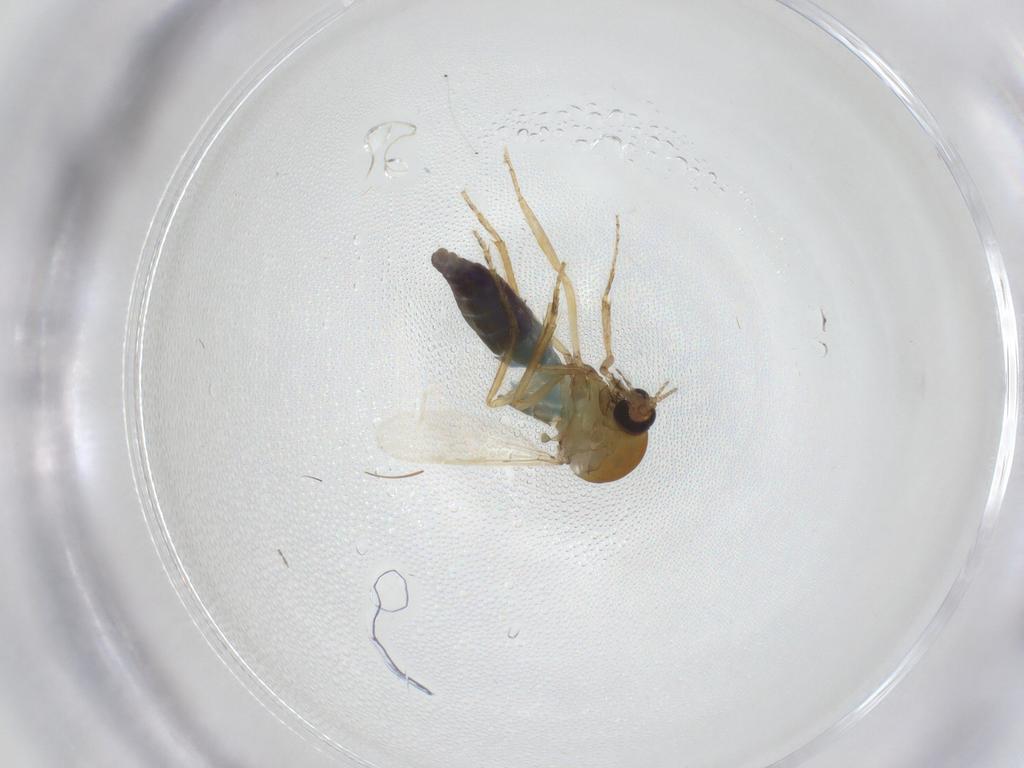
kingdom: Animalia
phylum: Arthropoda
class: Insecta
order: Diptera
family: Ceratopogonidae
